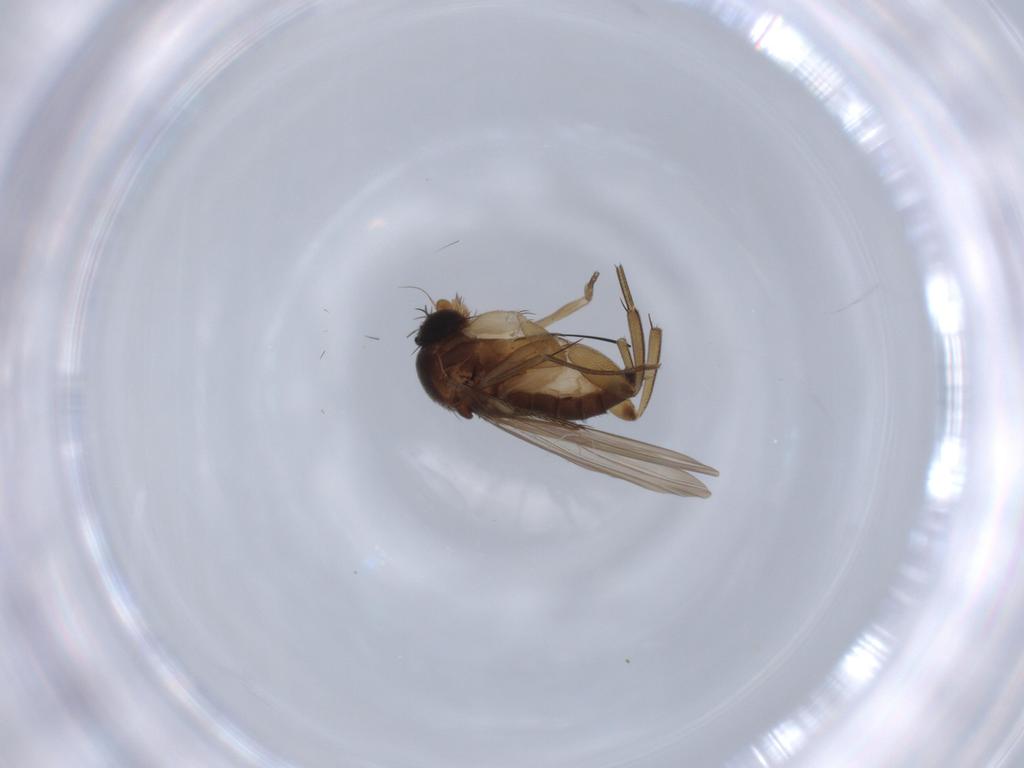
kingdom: Animalia
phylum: Arthropoda
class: Insecta
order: Diptera
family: Phoridae
